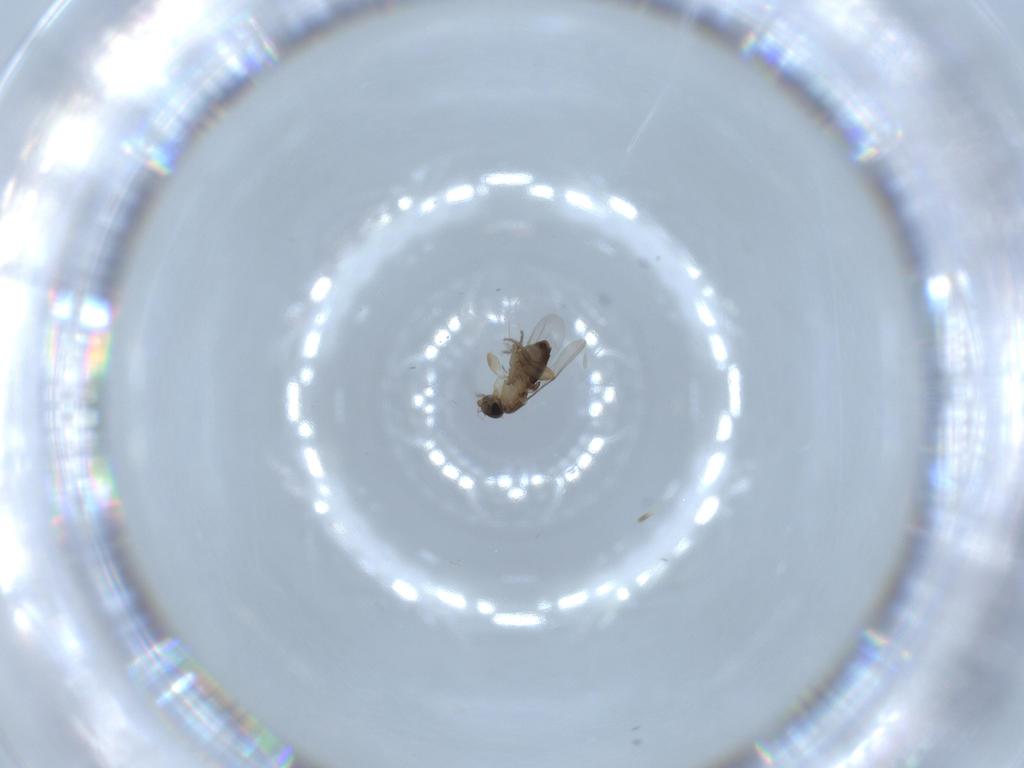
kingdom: Animalia
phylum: Arthropoda
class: Insecta
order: Diptera
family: Phoridae
